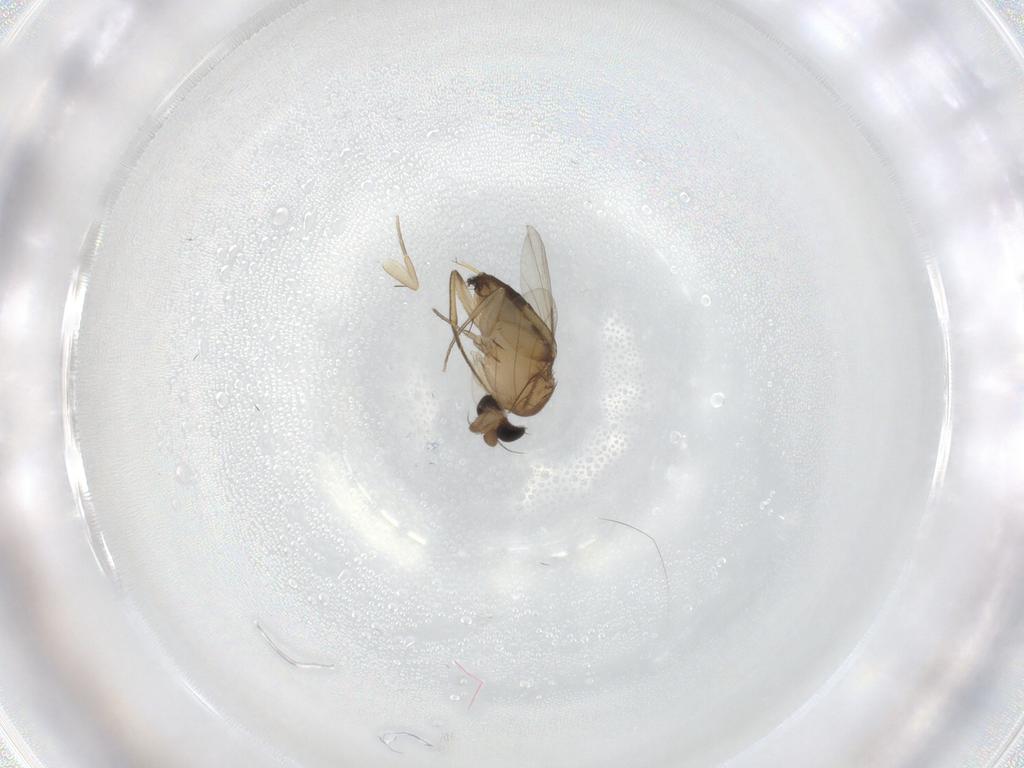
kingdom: Animalia
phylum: Arthropoda
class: Insecta
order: Diptera
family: Phoridae
